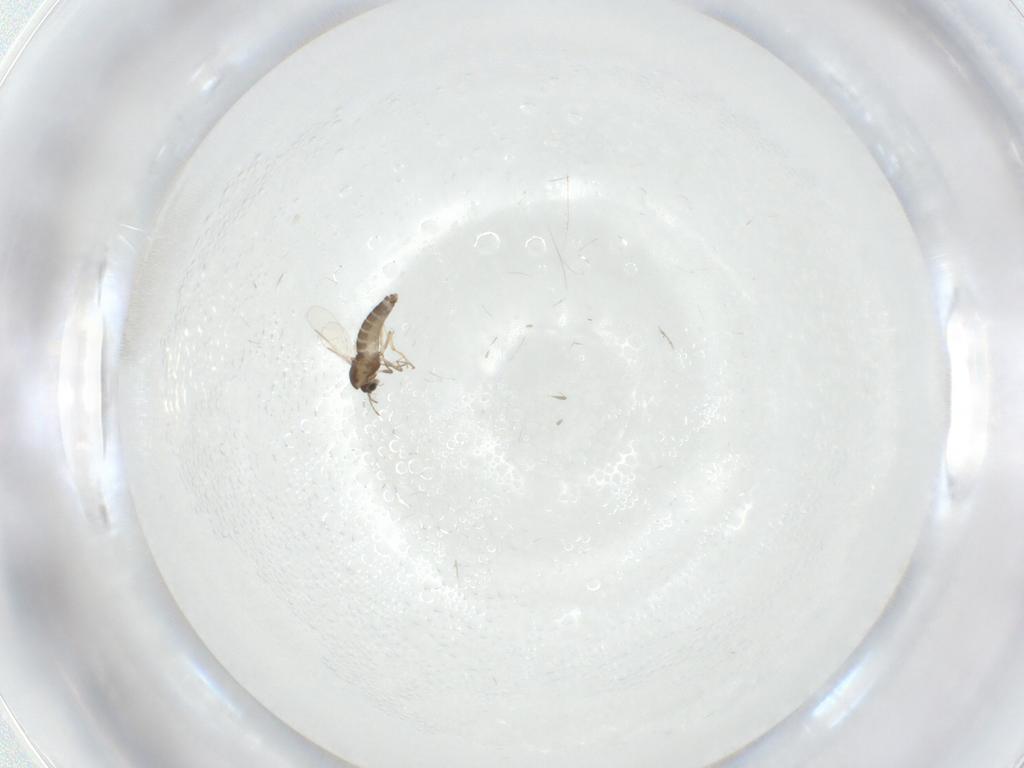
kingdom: Animalia
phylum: Arthropoda
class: Insecta
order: Diptera
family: Chironomidae
